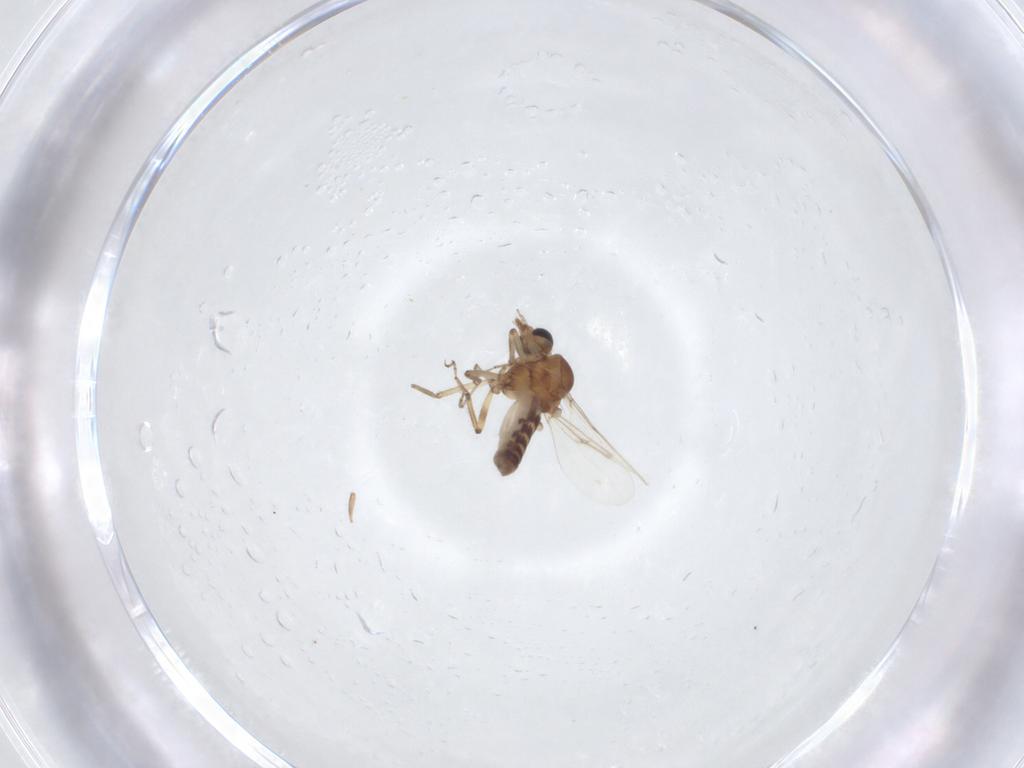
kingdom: Animalia
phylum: Arthropoda
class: Insecta
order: Diptera
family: Ceratopogonidae
